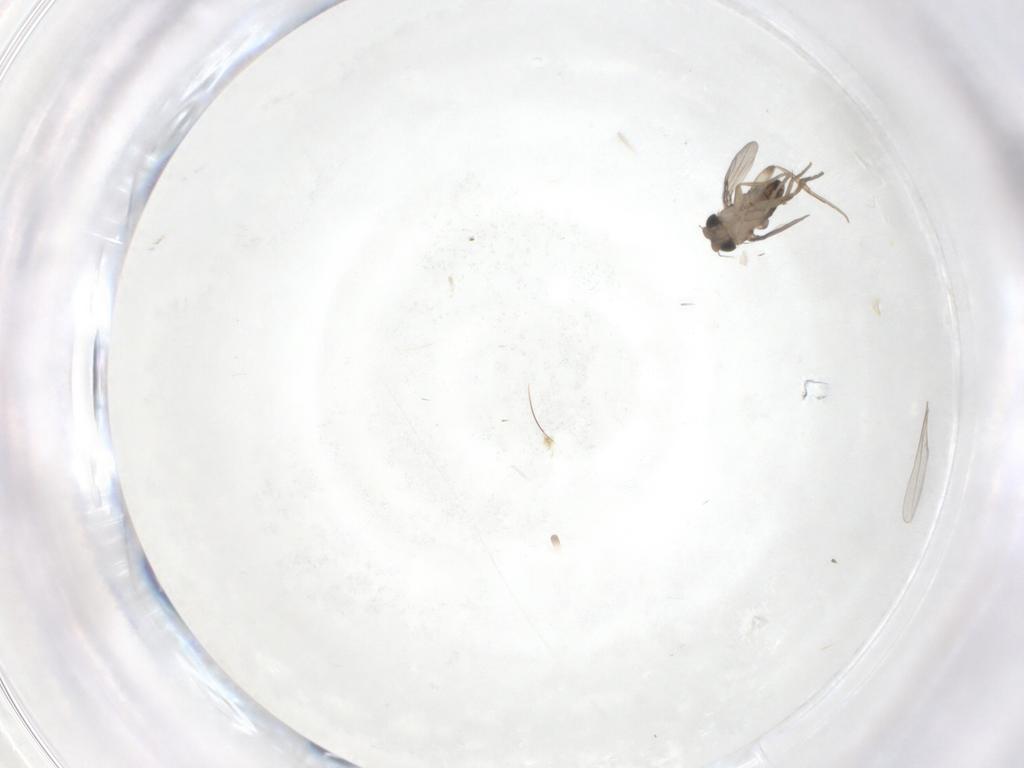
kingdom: Animalia
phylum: Arthropoda
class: Insecta
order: Diptera
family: Phoridae
